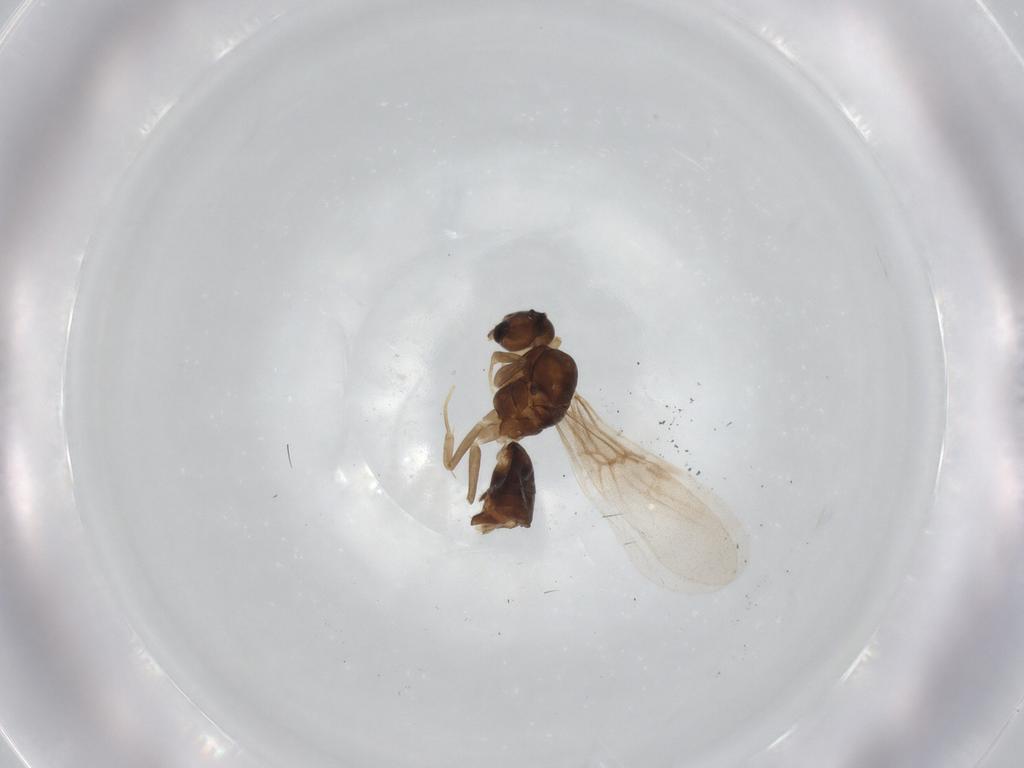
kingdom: Animalia
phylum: Arthropoda
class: Insecta
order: Hymenoptera
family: Formicidae
